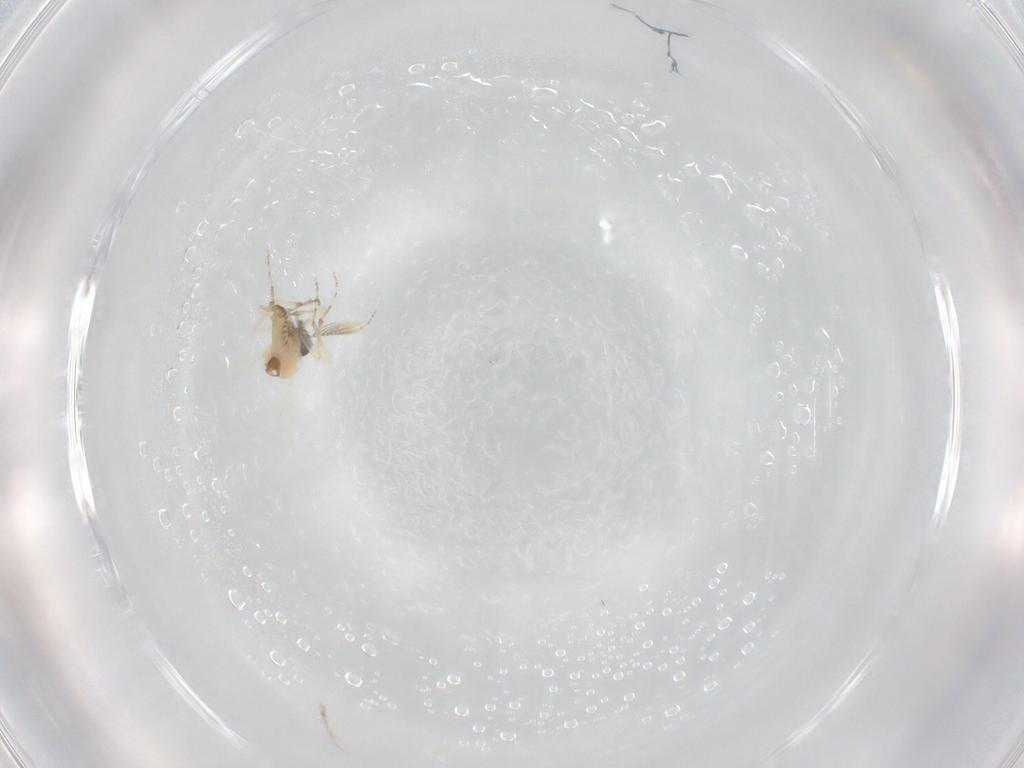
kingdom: Animalia
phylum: Arthropoda
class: Insecta
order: Diptera
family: Ceratopogonidae
